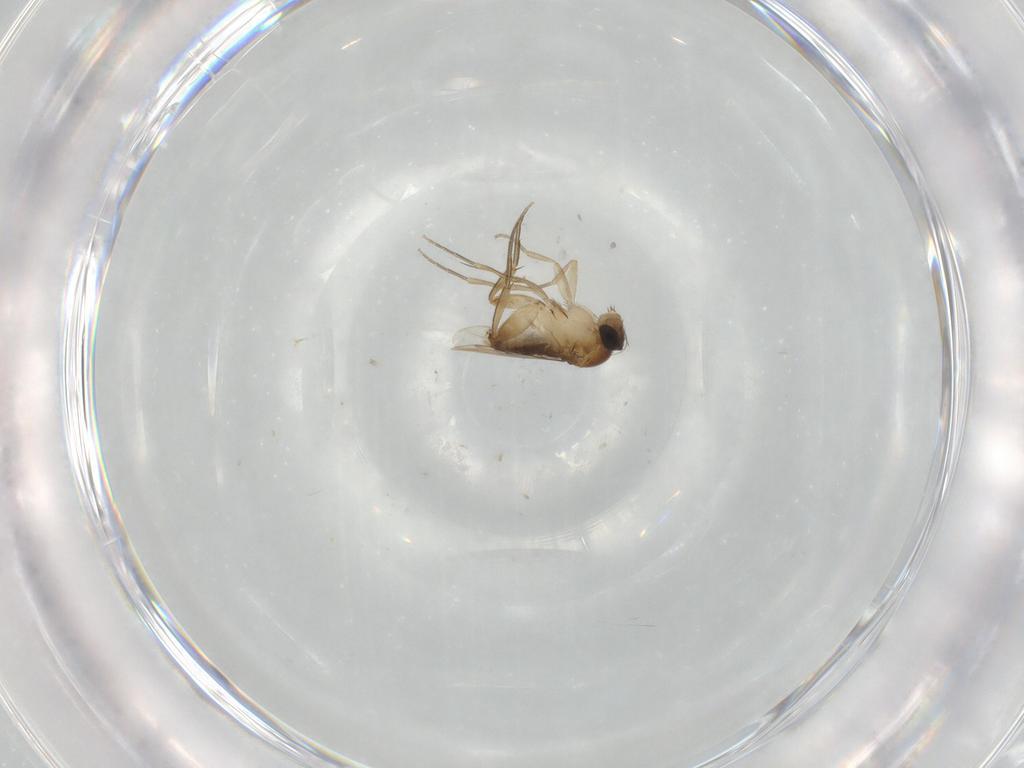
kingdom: Animalia
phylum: Arthropoda
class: Insecta
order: Diptera
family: Phoridae
